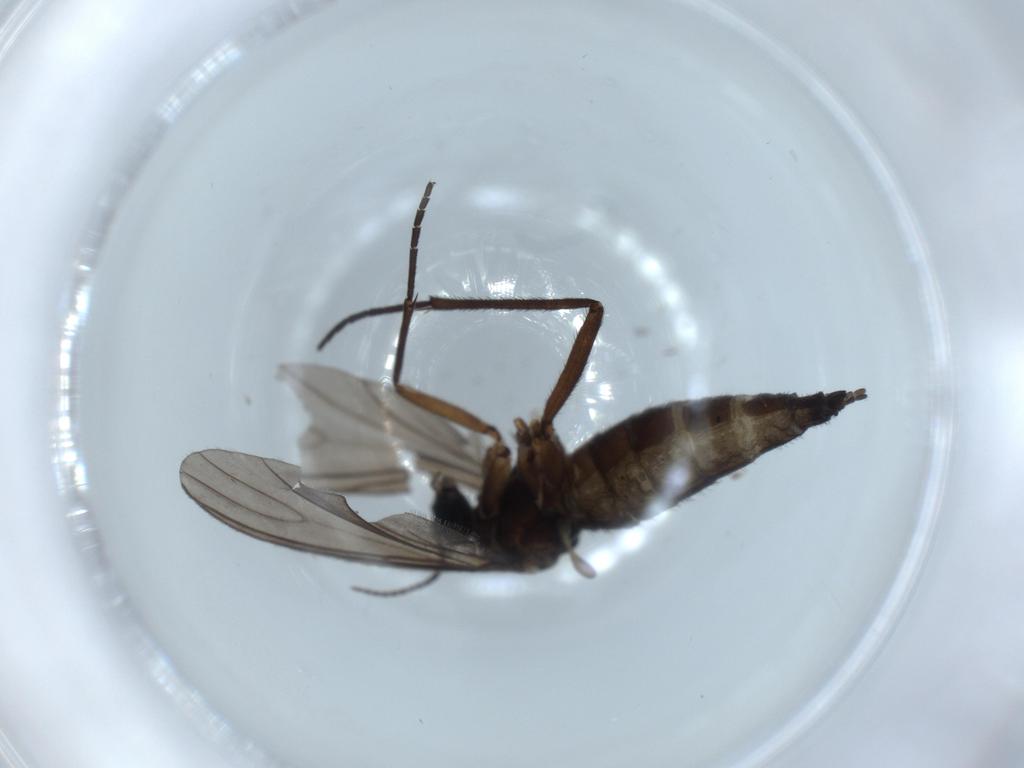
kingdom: Animalia
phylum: Arthropoda
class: Insecta
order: Diptera
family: Sciaridae
